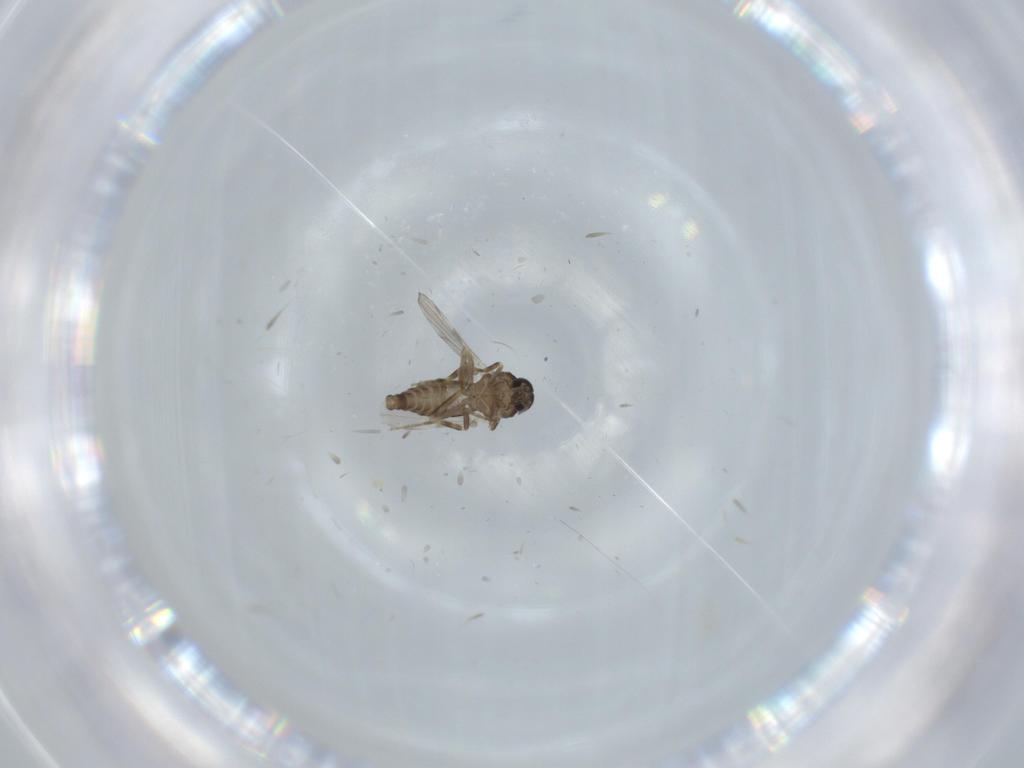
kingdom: Animalia
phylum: Arthropoda
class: Insecta
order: Diptera
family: Ceratopogonidae
